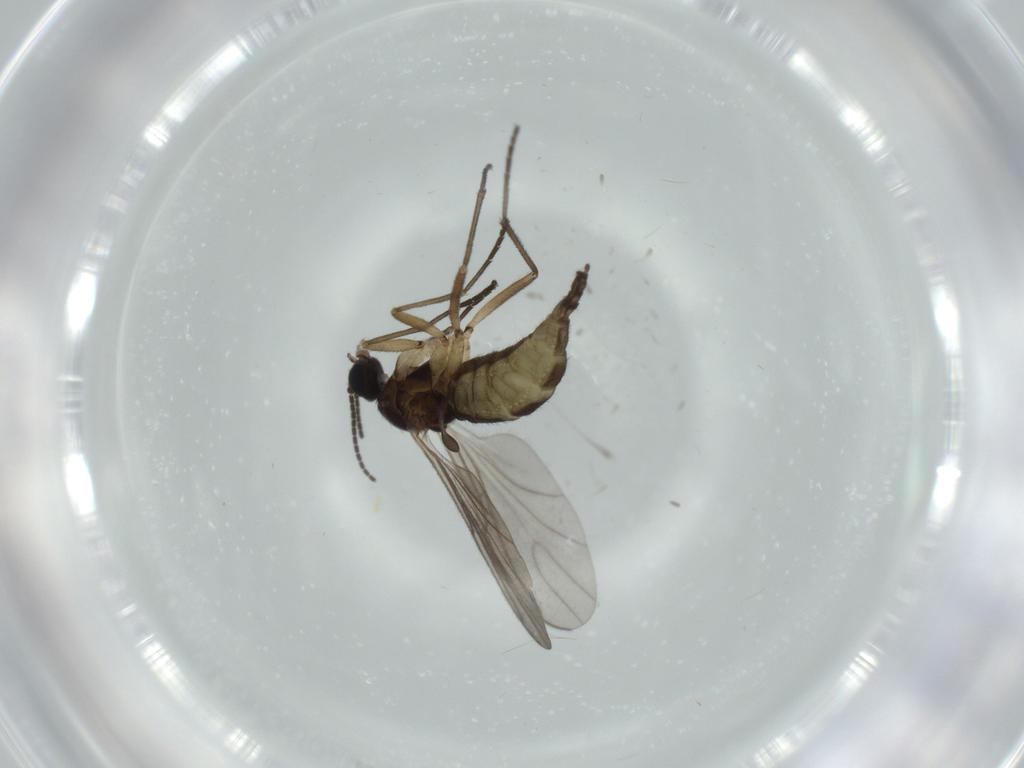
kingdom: Animalia
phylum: Arthropoda
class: Insecta
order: Diptera
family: Sciaridae
